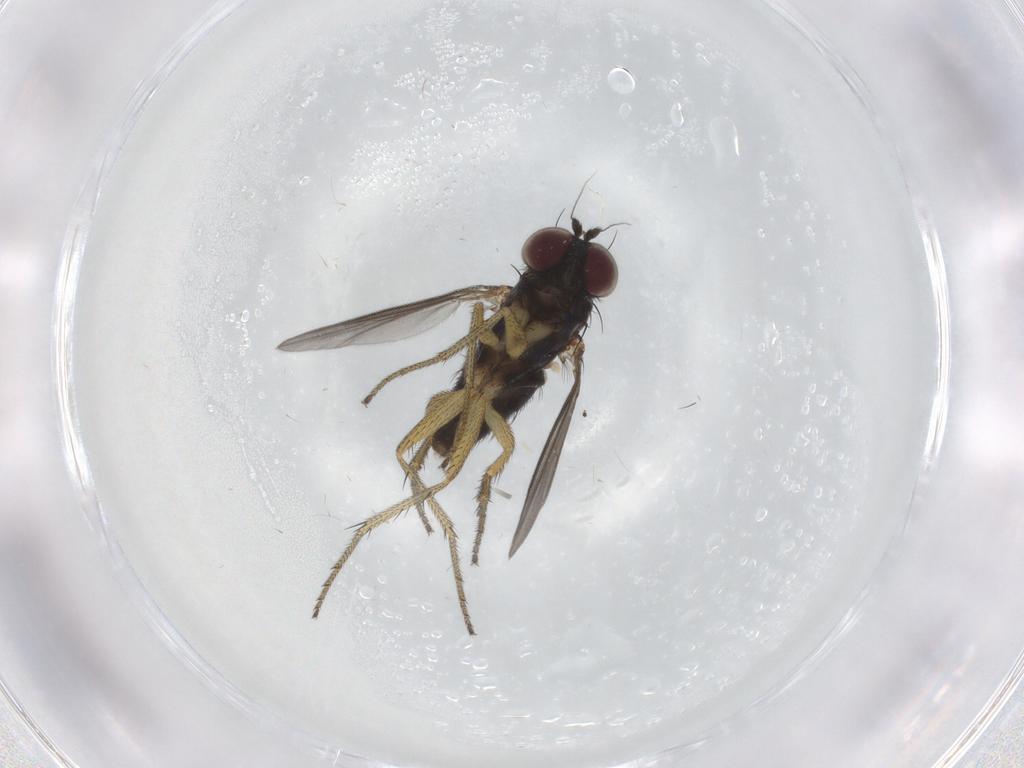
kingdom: Animalia
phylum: Arthropoda
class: Insecta
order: Diptera
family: Dolichopodidae
